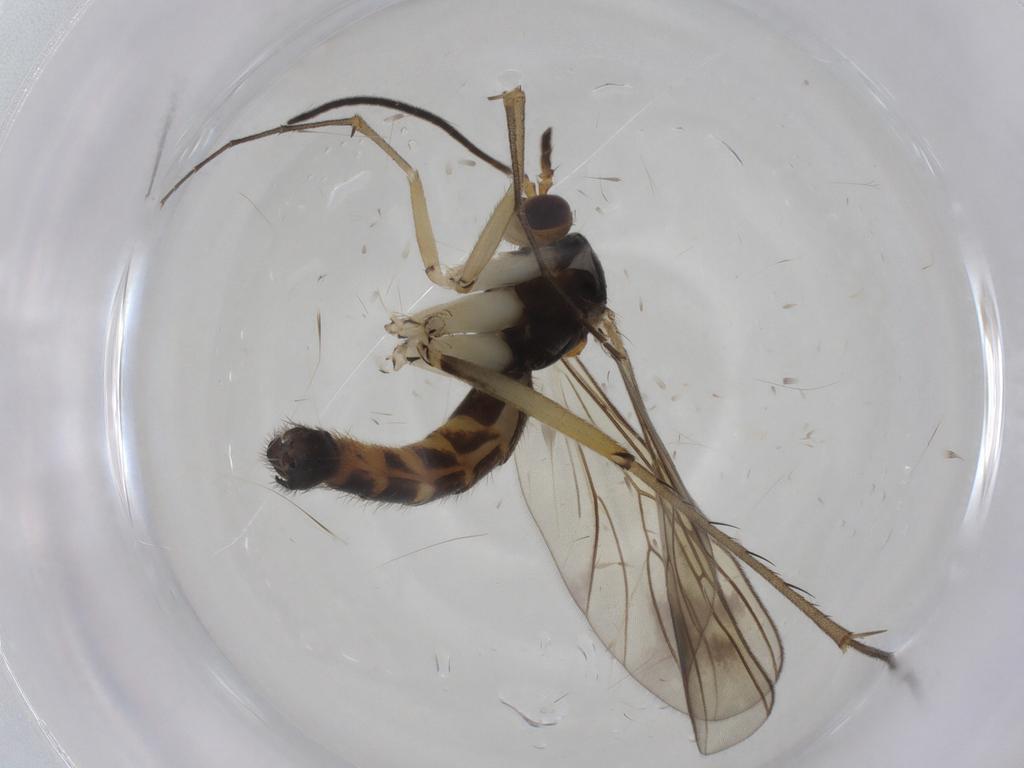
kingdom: Animalia
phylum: Arthropoda
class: Insecta
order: Diptera
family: Mycetophilidae
